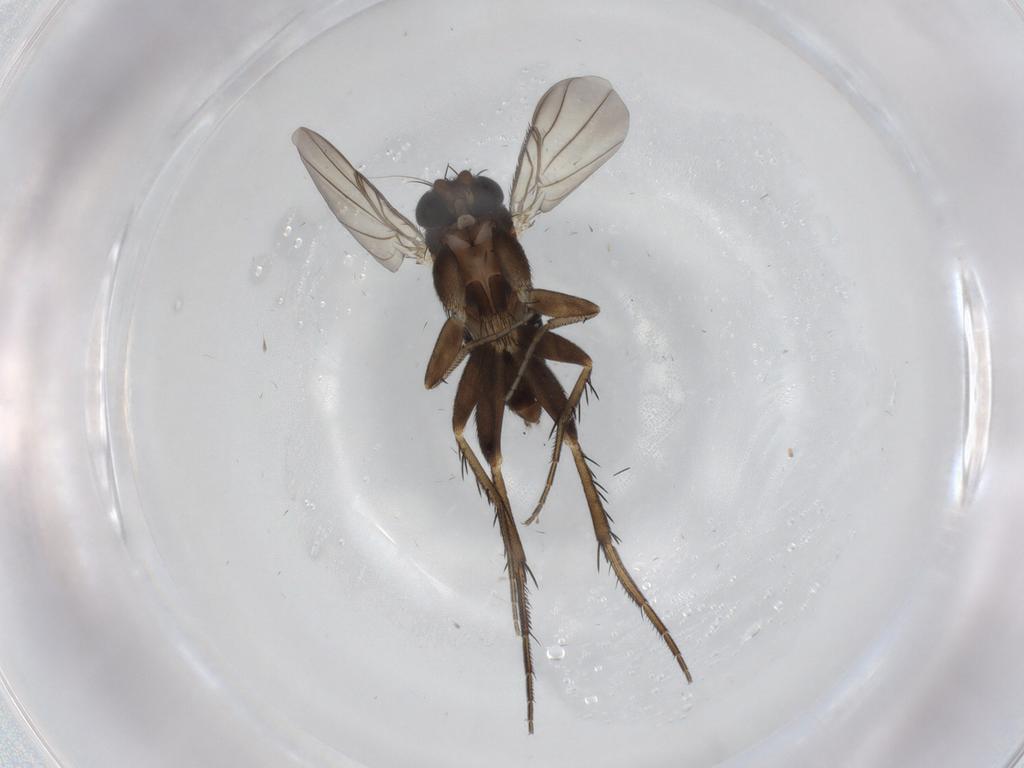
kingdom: Animalia
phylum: Arthropoda
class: Insecta
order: Diptera
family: Phoridae
